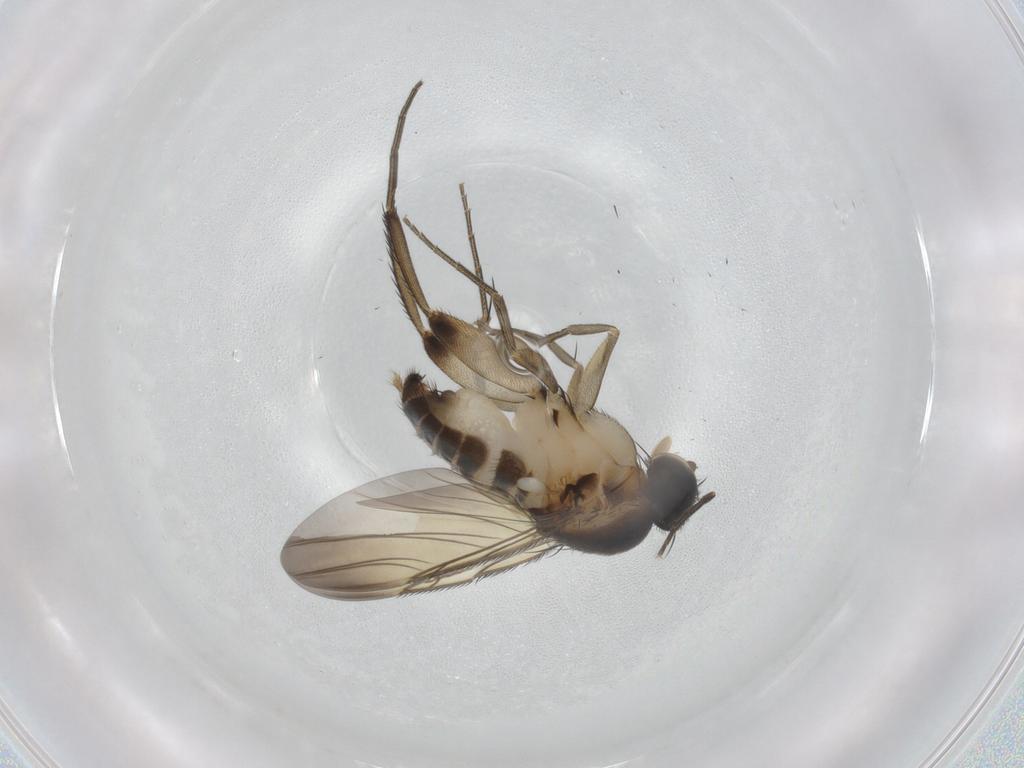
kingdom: Animalia
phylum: Arthropoda
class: Insecta
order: Diptera
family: Phoridae
